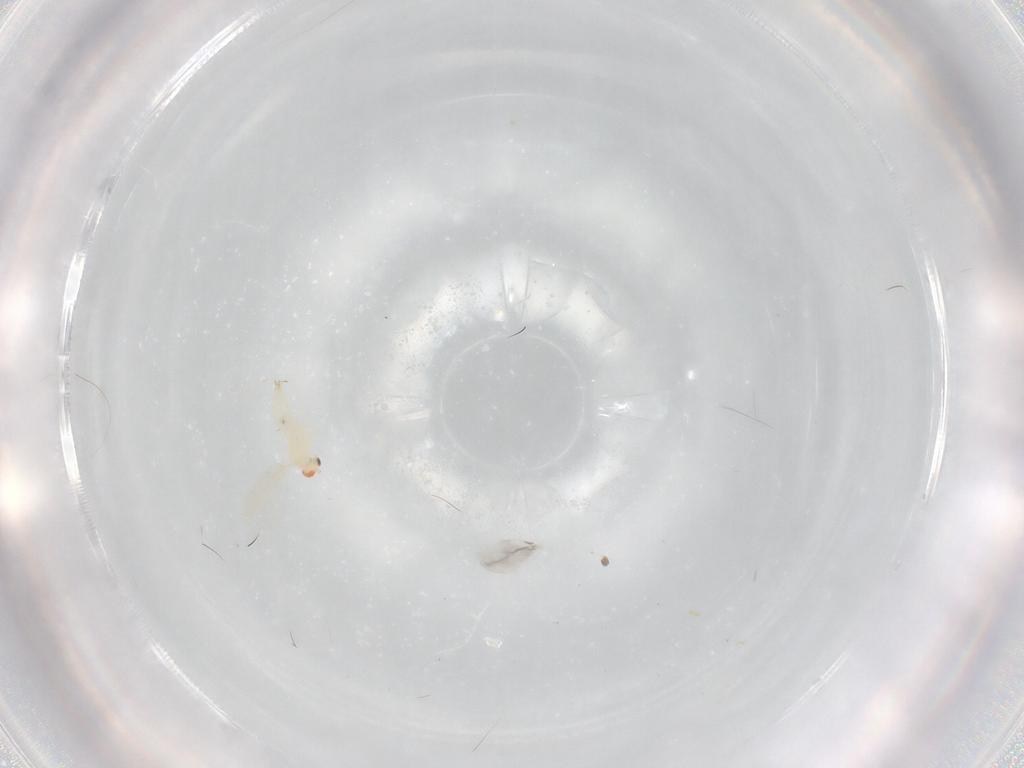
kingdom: Animalia
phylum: Arthropoda
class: Insecta
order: Diptera
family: Cecidomyiidae
